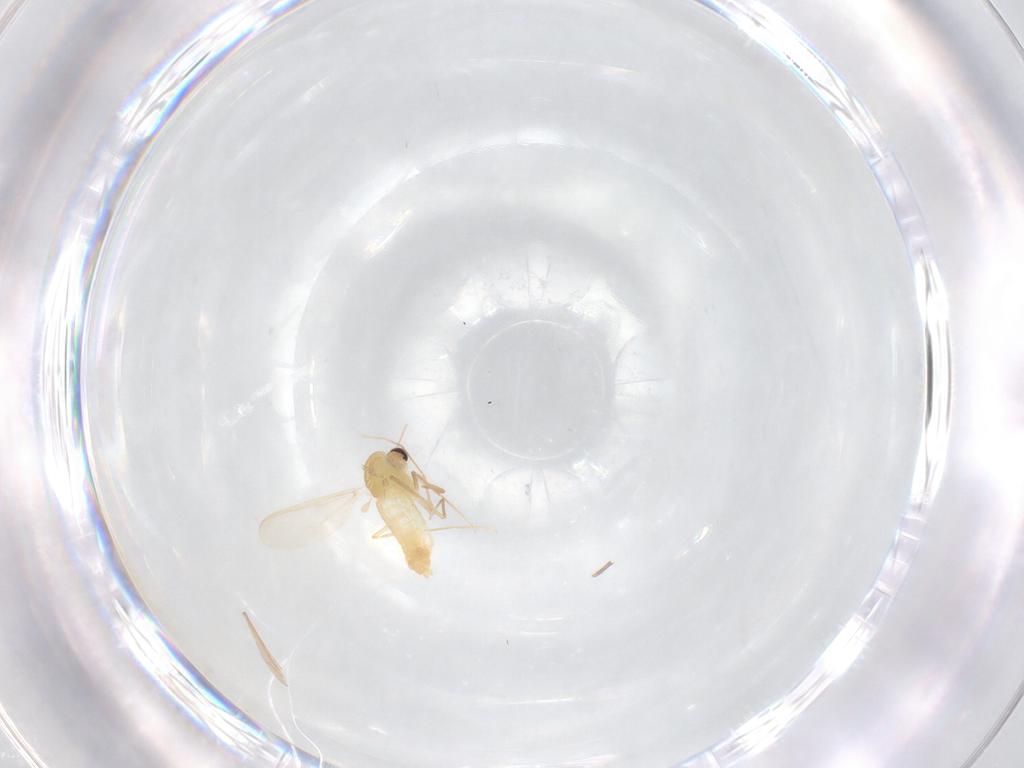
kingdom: Animalia
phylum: Arthropoda
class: Insecta
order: Diptera
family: Chironomidae
